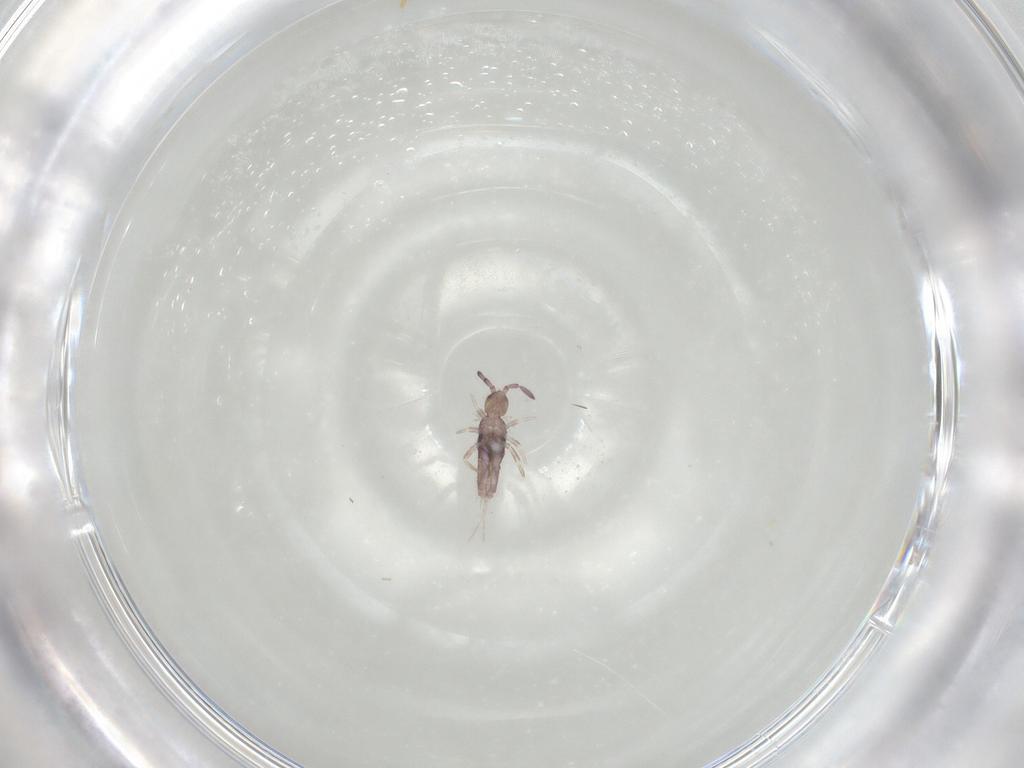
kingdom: Animalia
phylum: Arthropoda
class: Collembola
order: Entomobryomorpha
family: Entomobryidae
